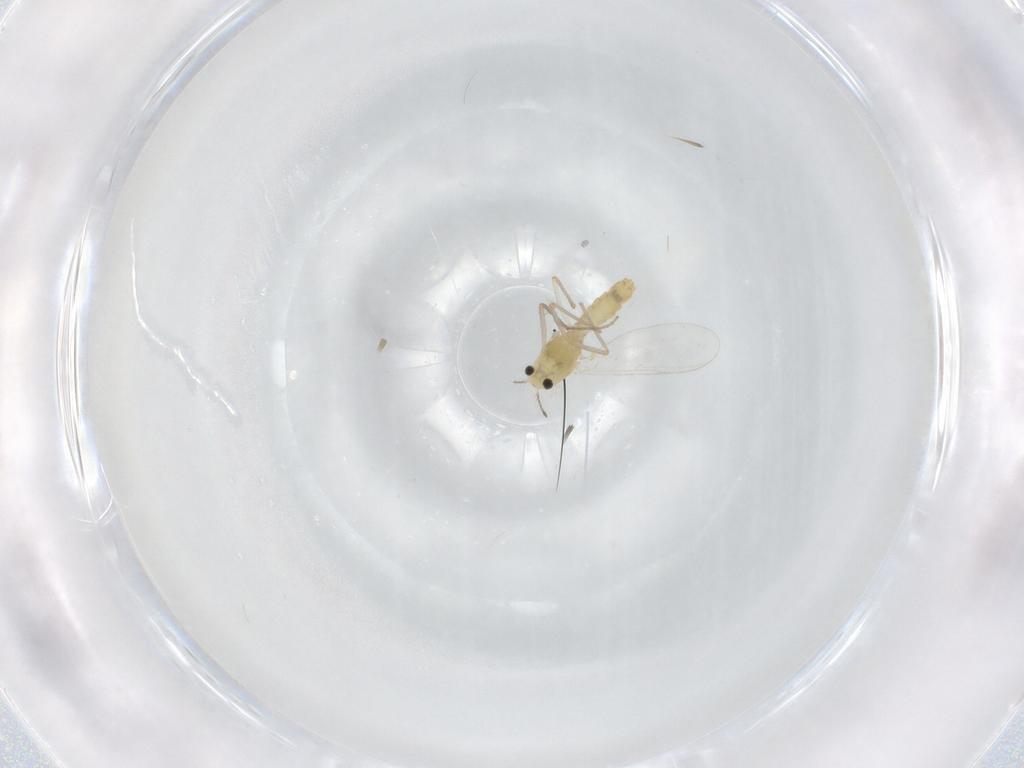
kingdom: Animalia
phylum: Arthropoda
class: Insecta
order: Diptera
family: Chironomidae
